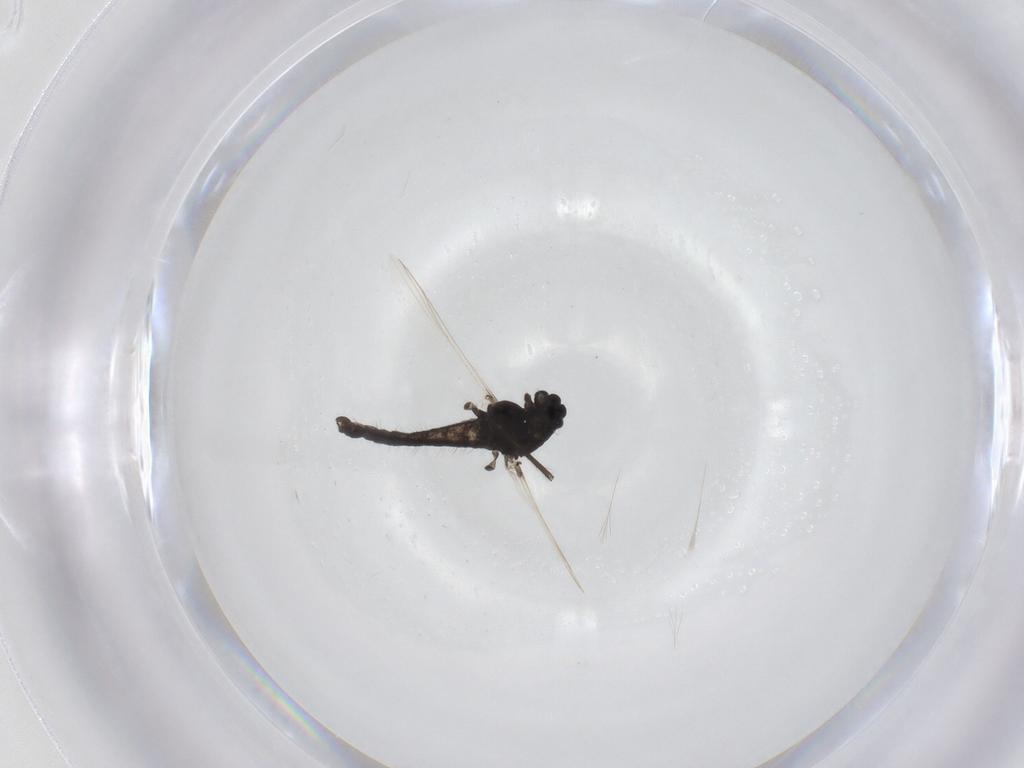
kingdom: Animalia
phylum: Arthropoda
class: Insecta
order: Diptera
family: Chironomidae
